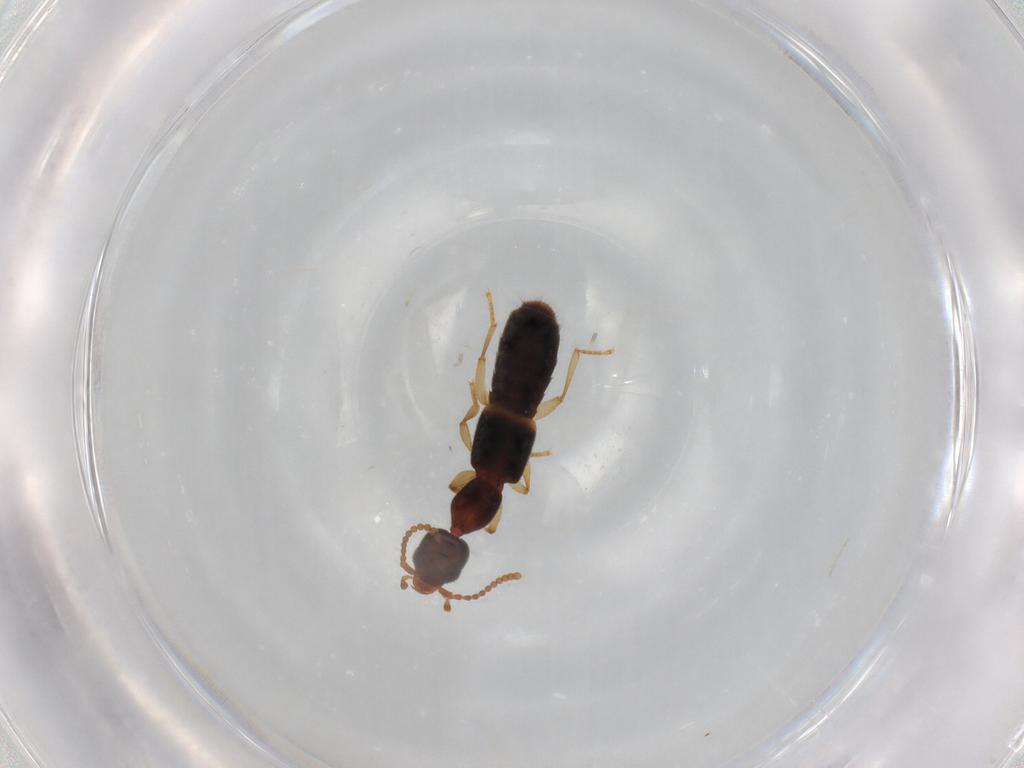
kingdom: Animalia
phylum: Arthropoda
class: Insecta
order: Coleoptera
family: Staphylinidae
